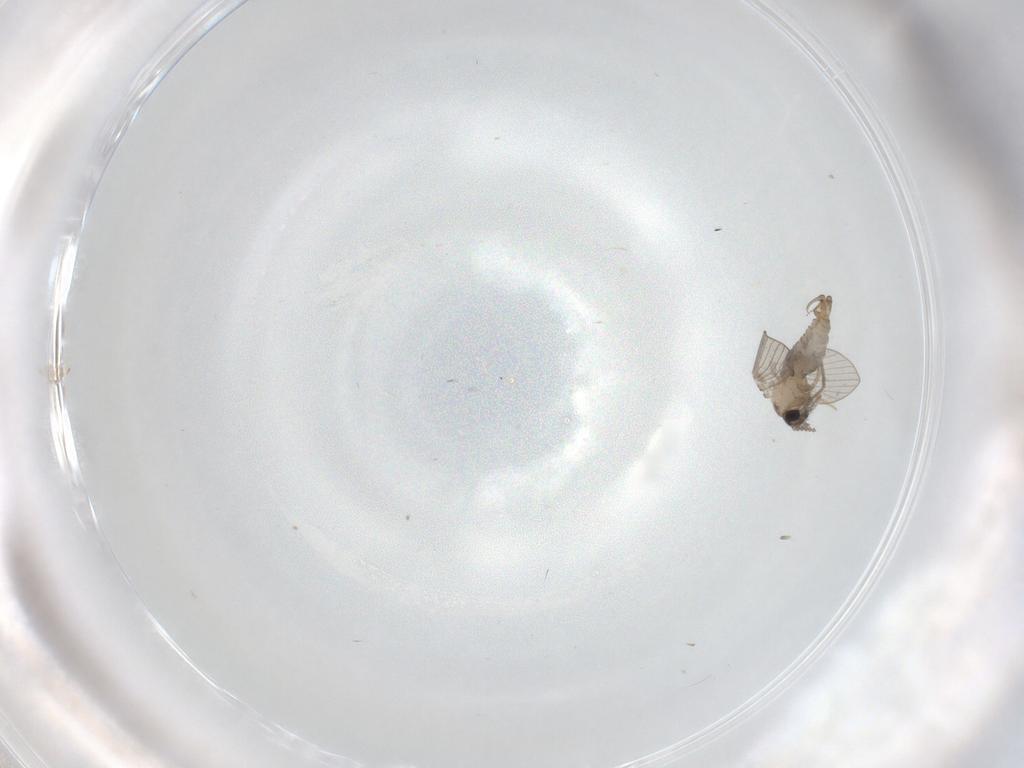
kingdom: Animalia
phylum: Arthropoda
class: Insecta
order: Diptera
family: Psychodidae
